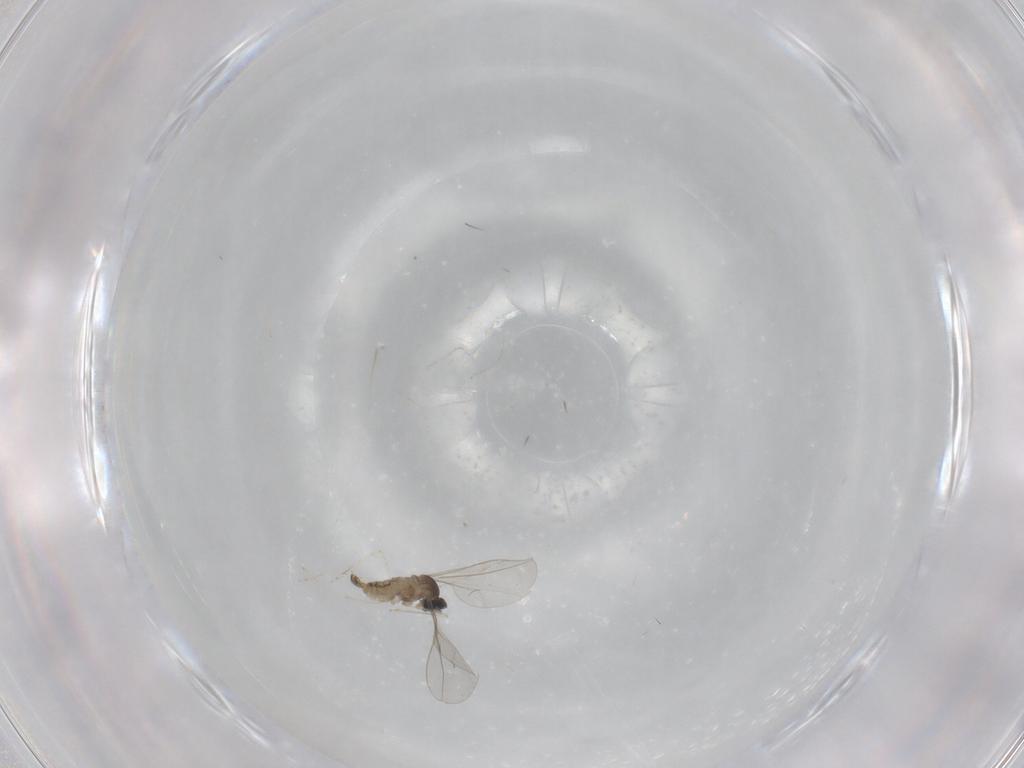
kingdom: Animalia
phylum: Arthropoda
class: Insecta
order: Diptera
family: Cecidomyiidae
